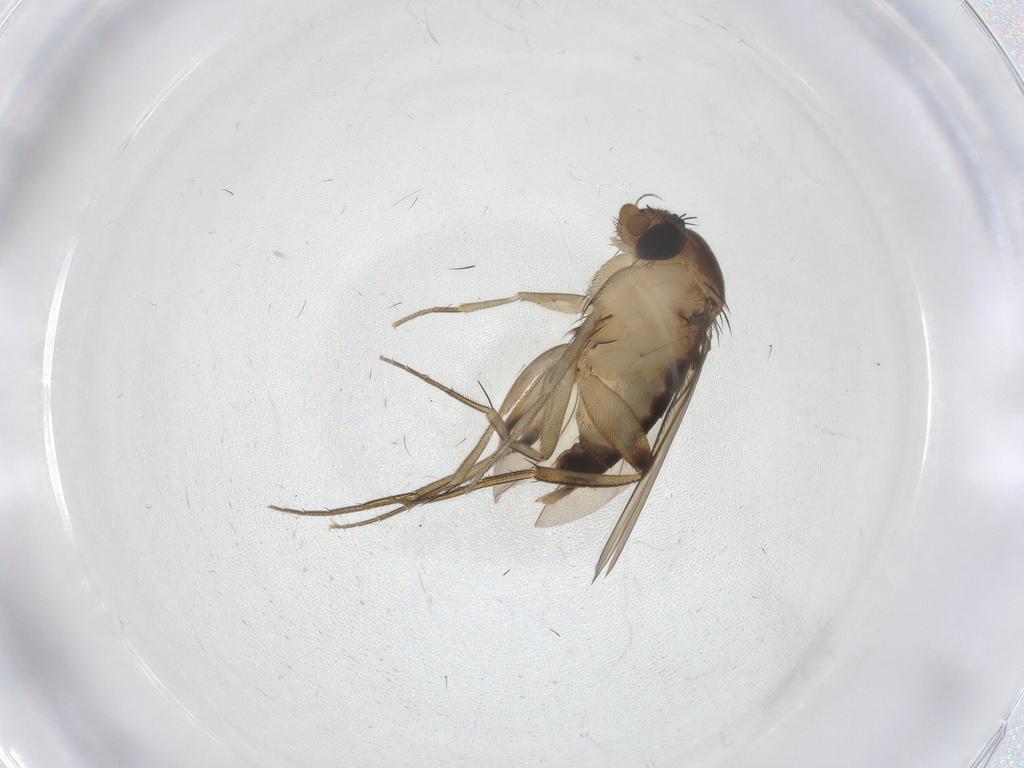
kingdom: Animalia
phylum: Arthropoda
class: Insecta
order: Diptera
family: Phoridae
